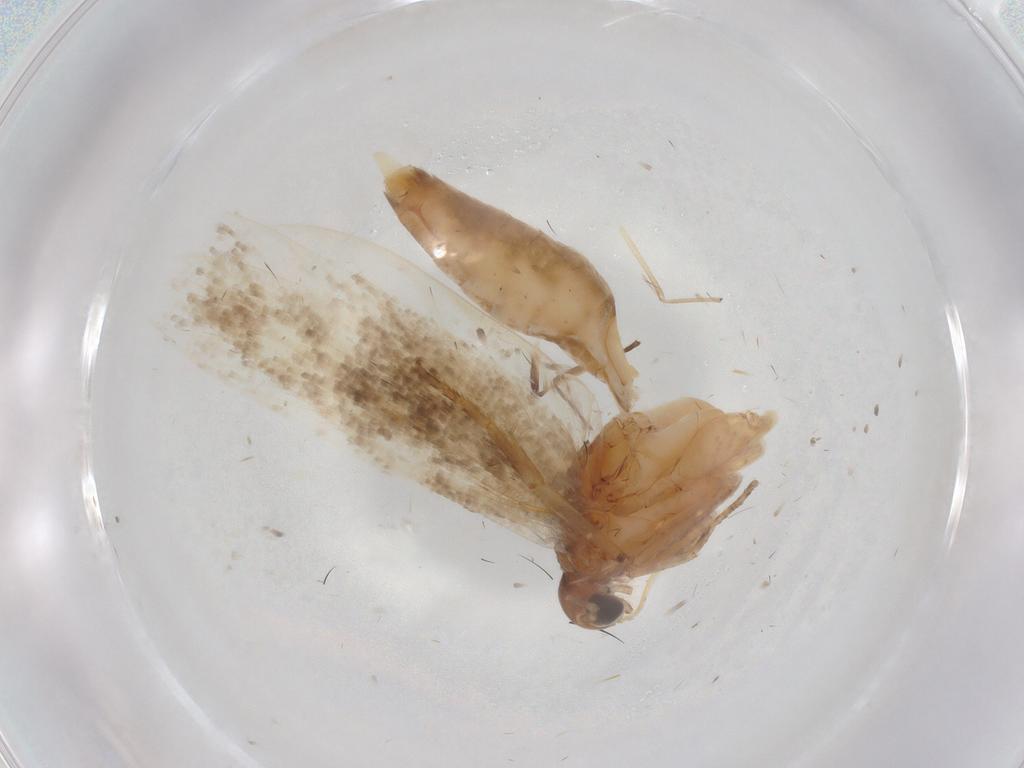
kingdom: Animalia
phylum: Arthropoda
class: Insecta
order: Lepidoptera
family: Gelechiidae
